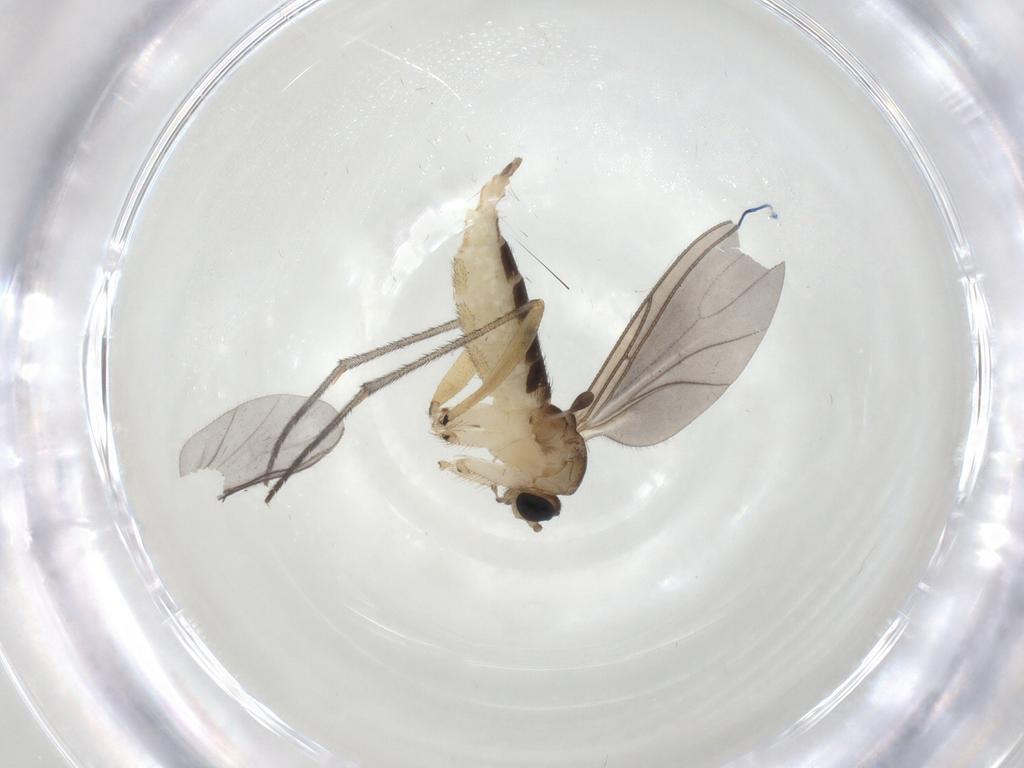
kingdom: Animalia
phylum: Arthropoda
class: Insecta
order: Diptera
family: Sciaridae
